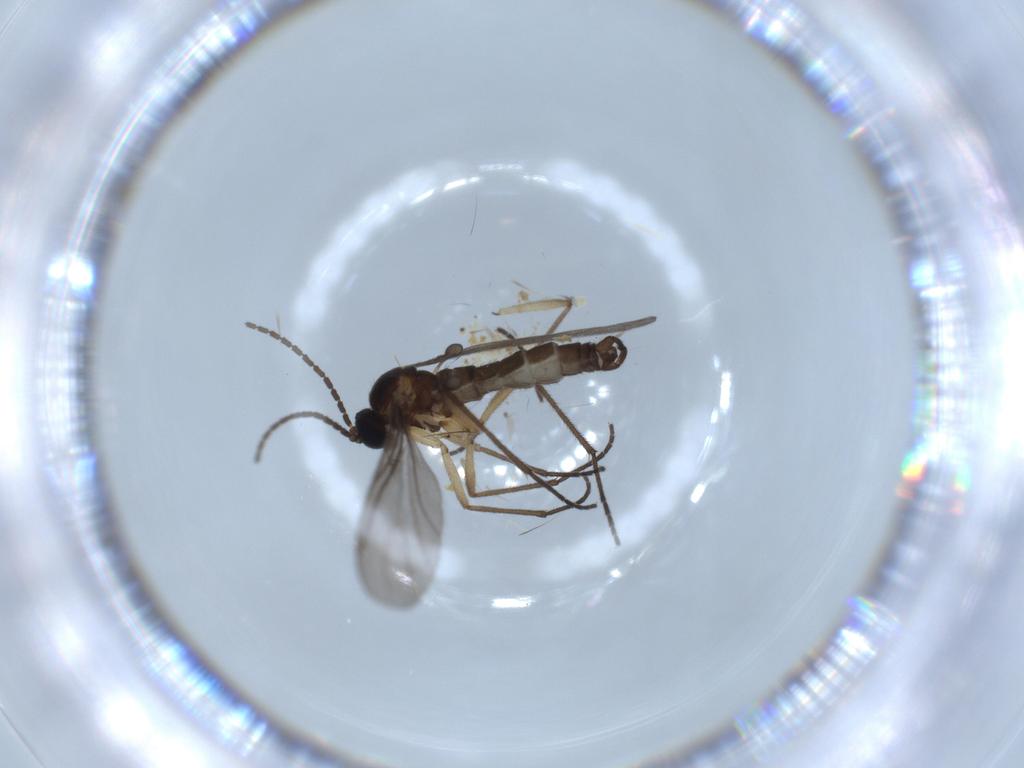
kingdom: Animalia
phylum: Arthropoda
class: Insecta
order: Diptera
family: Sciaridae
